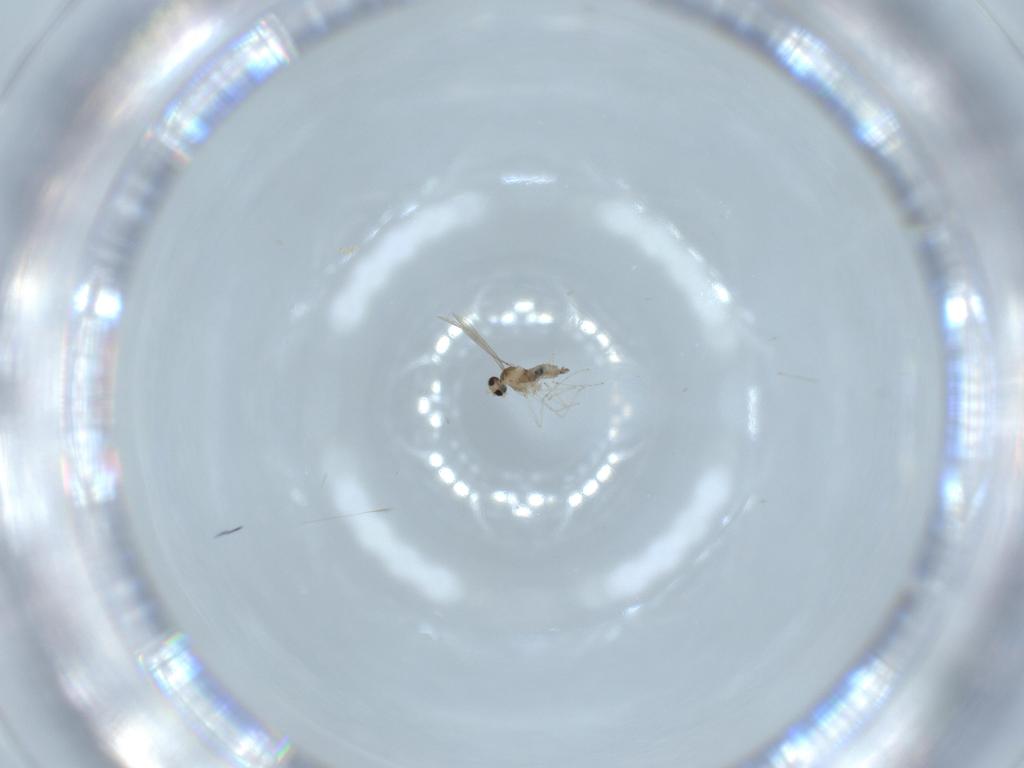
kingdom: Animalia
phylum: Arthropoda
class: Insecta
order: Diptera
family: Cecidomyiidae
